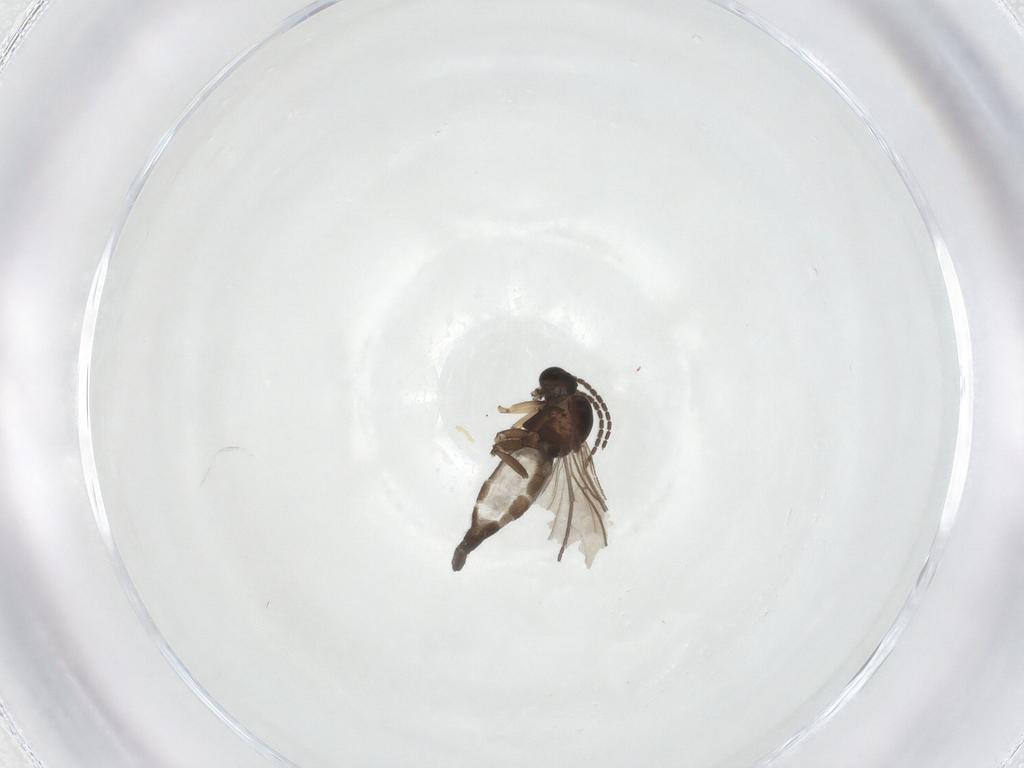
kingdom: Animalia
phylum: Arthropoda
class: Insecta
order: Diptera
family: Sciaridae
